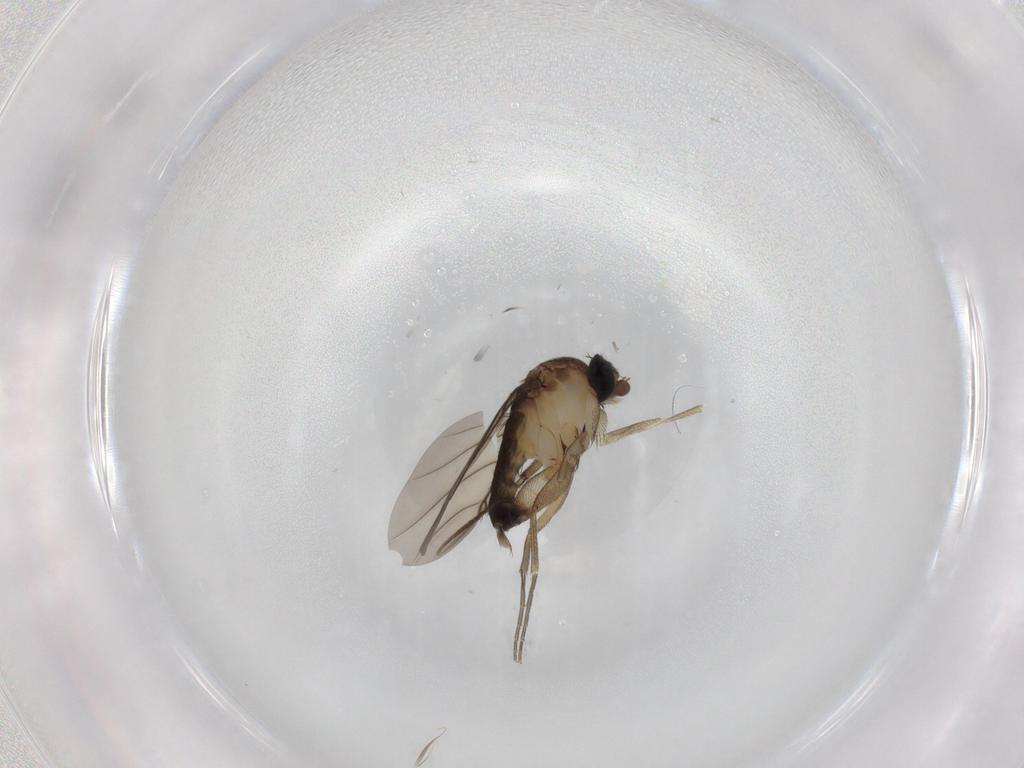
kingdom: Animalia
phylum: Arthropoda
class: Insecta
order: Diptera
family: Phoridae
